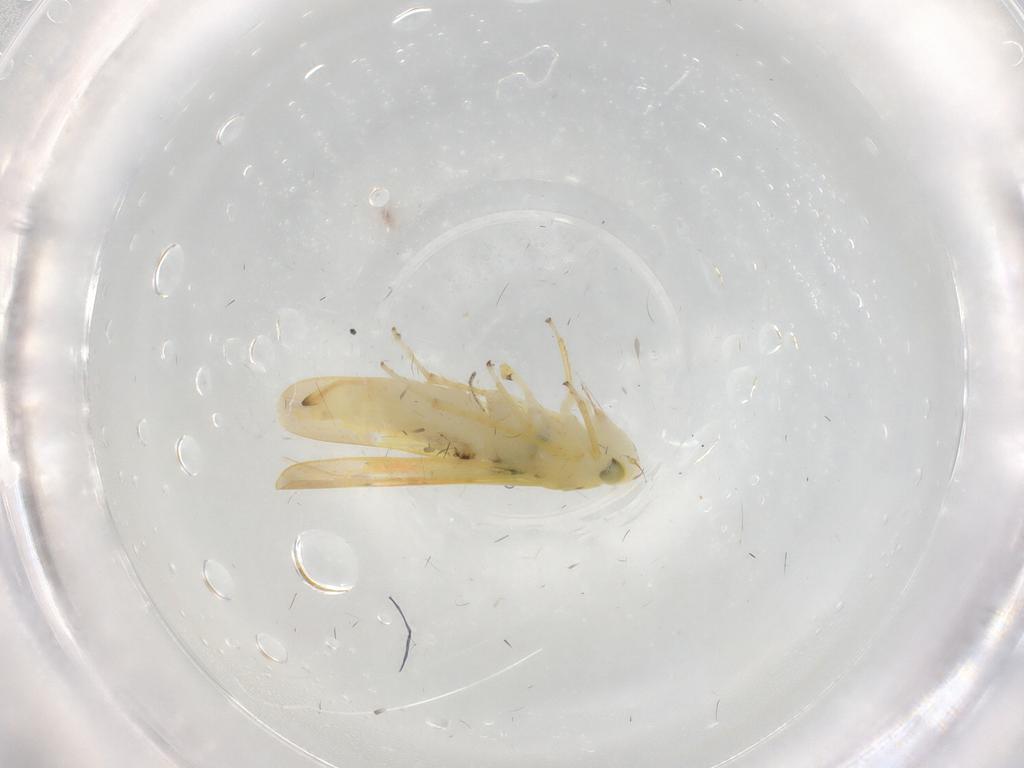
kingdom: Animalia
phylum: Arthropoda
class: Insecta
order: Hemiptera
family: Cicadellidae
